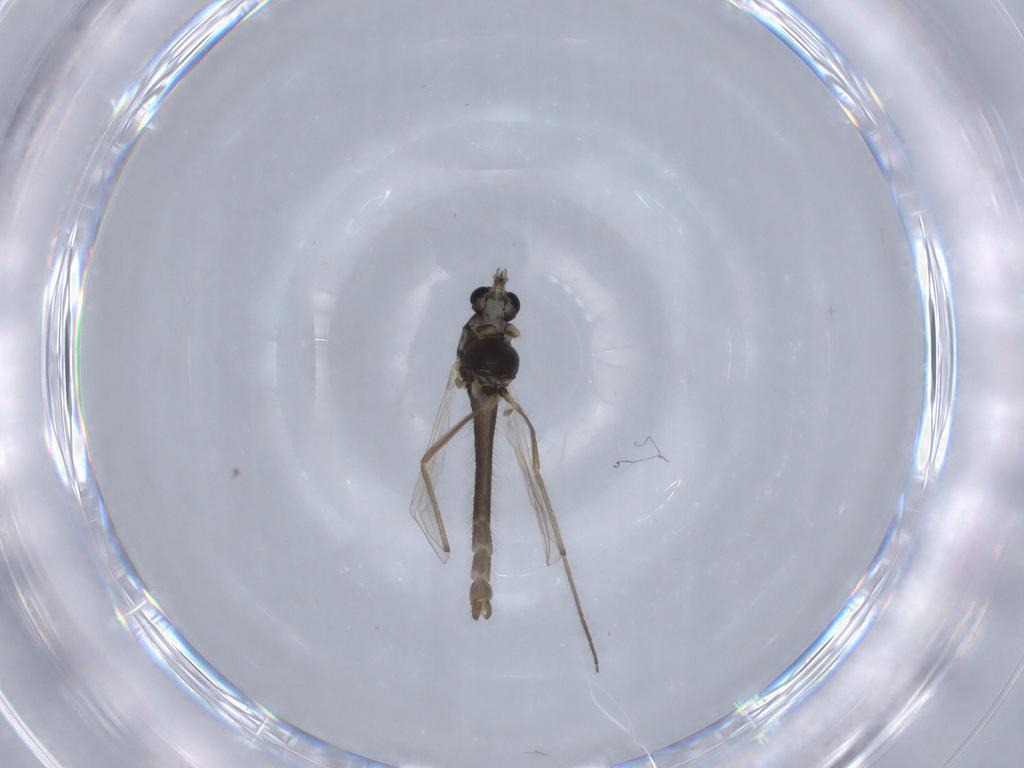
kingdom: Animalia
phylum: Arthropoda
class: Insecta
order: Diptera
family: Chironomidae
